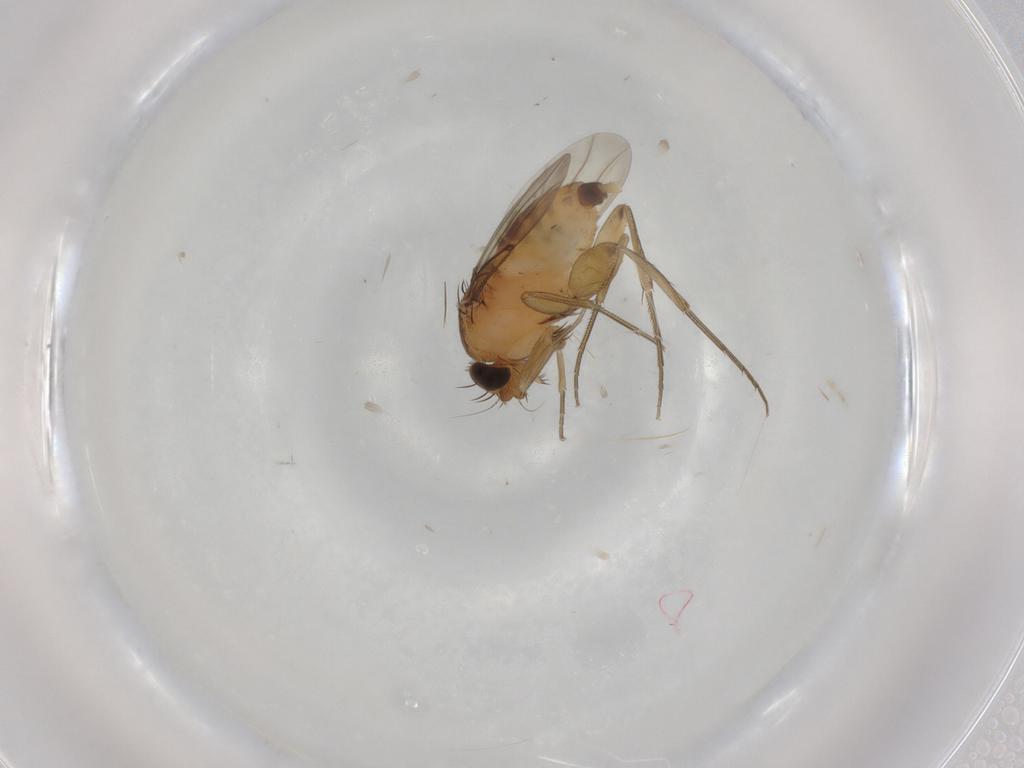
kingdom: Animalia
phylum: Arthropoda
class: Insecta
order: Diptera
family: Phoridae
